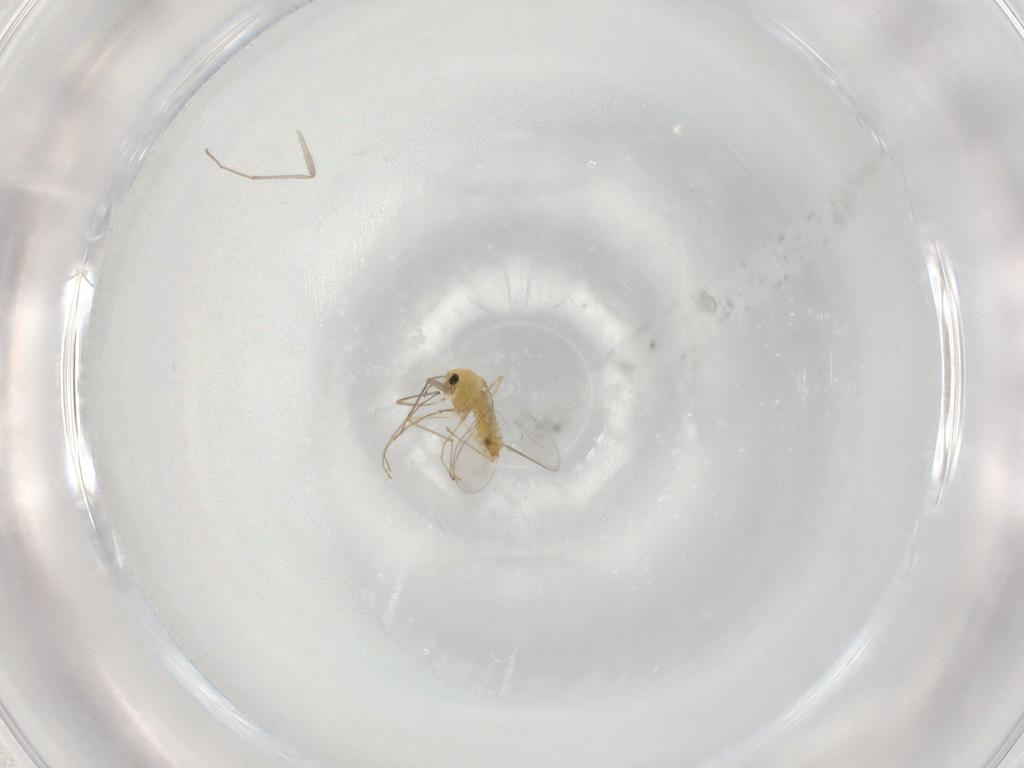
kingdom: Animalia
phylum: Arthropoda
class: Insecta
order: Diptera
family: Chironomidae
